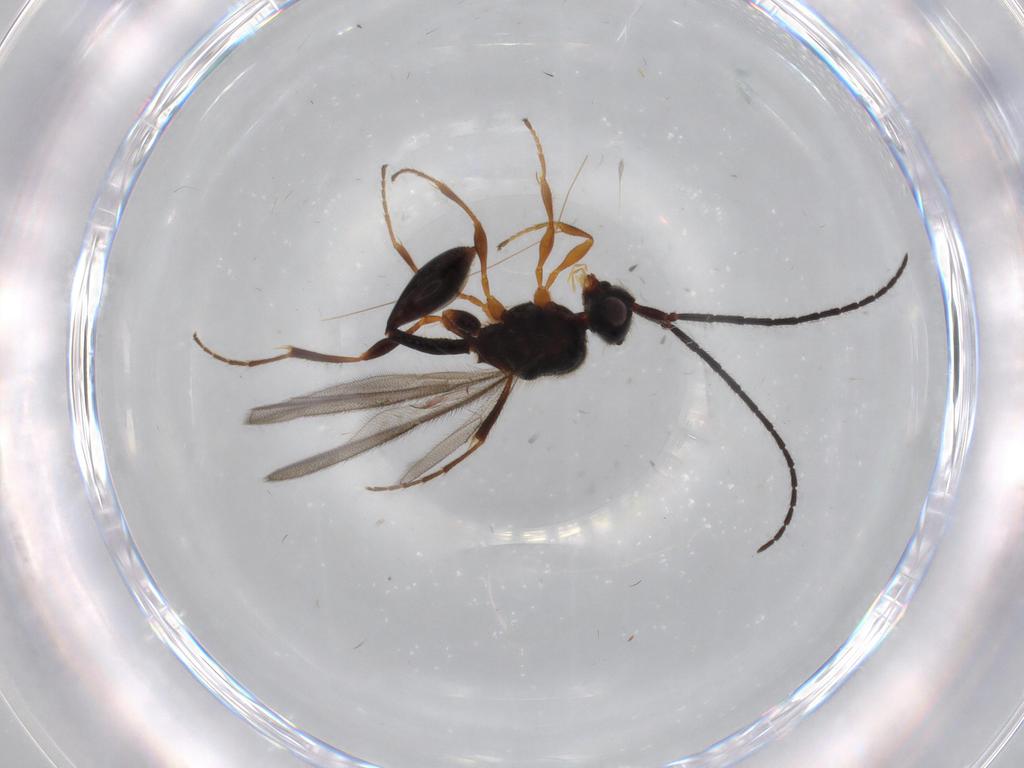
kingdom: Animalia
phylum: Arthropoda
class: Insecta
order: Hymenoptera
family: Diapriidae
